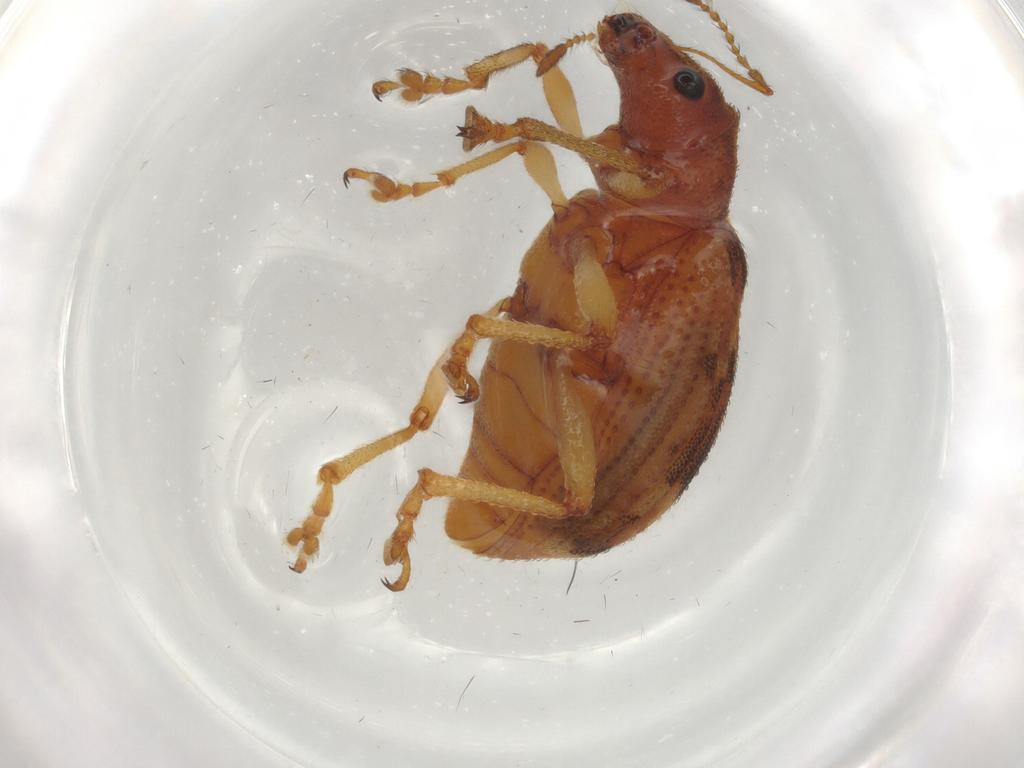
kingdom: Animalia
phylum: Arthropoda
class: Insecta
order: Coleoptera
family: Curculionidae
